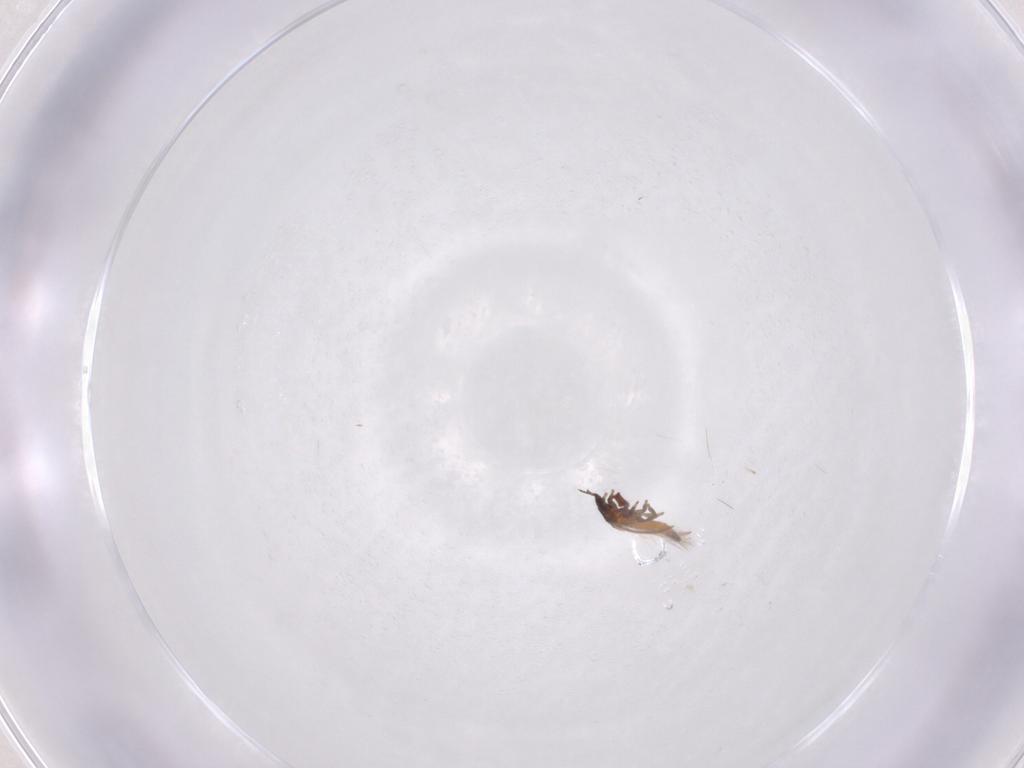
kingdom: Animalia
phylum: Arthropoda
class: Insecta
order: Thysanoptera
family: Thripidae
